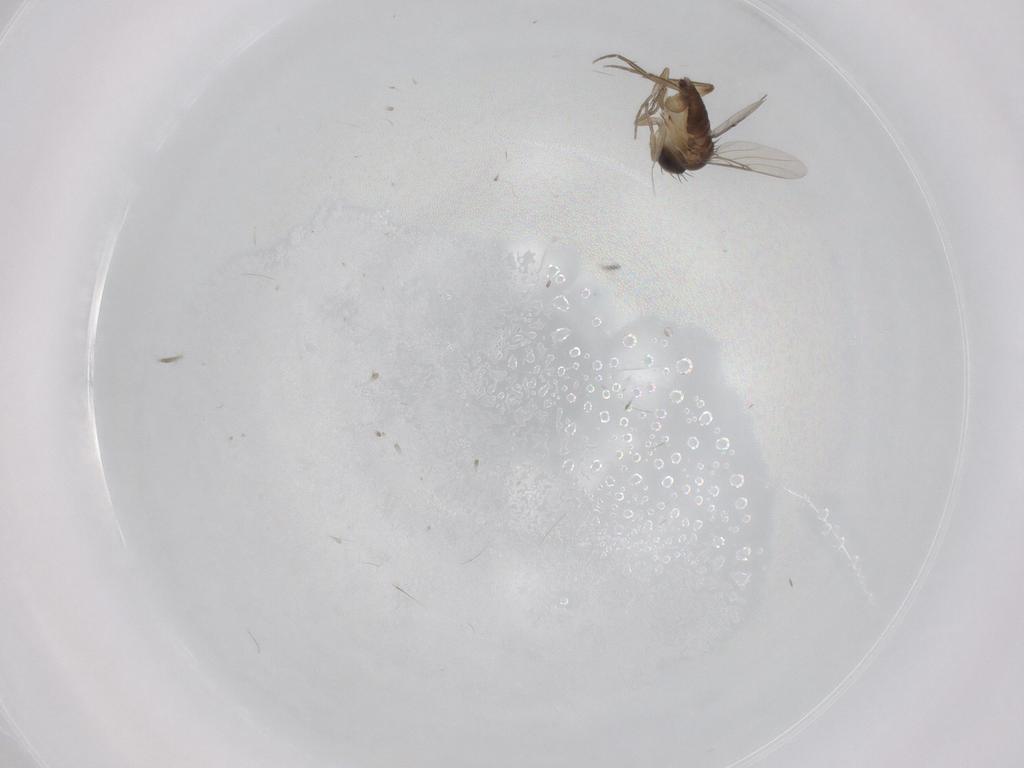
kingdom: Animalia
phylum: Arthropoda
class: Insecta
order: Diptera
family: Phoridae
